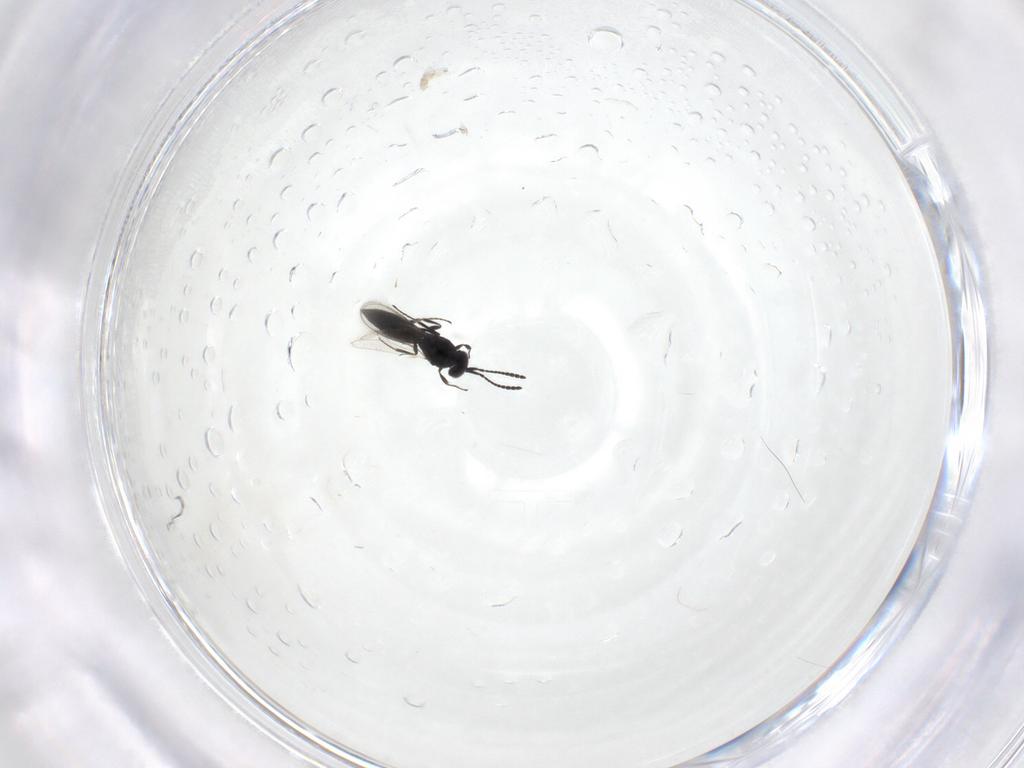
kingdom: Animalia
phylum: Arthropoda
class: Insecta
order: Hymenoptera
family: Scelionidae
